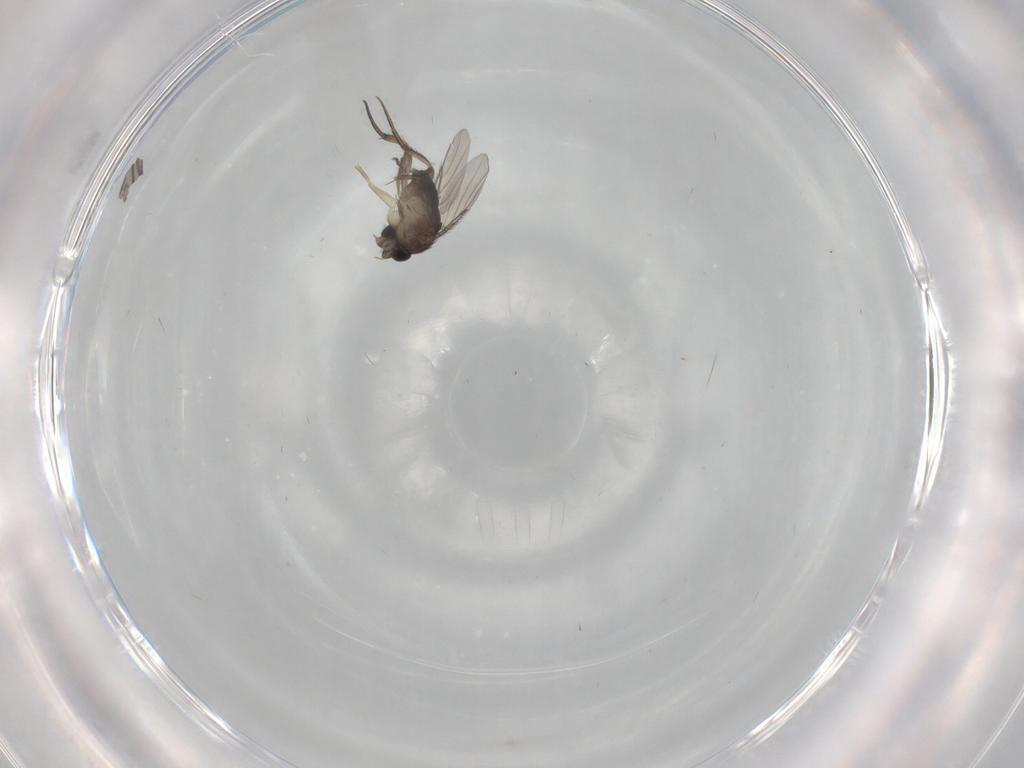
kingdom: Animalia
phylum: Arthropoda
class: Insecta
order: Diptera
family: Phoridae
